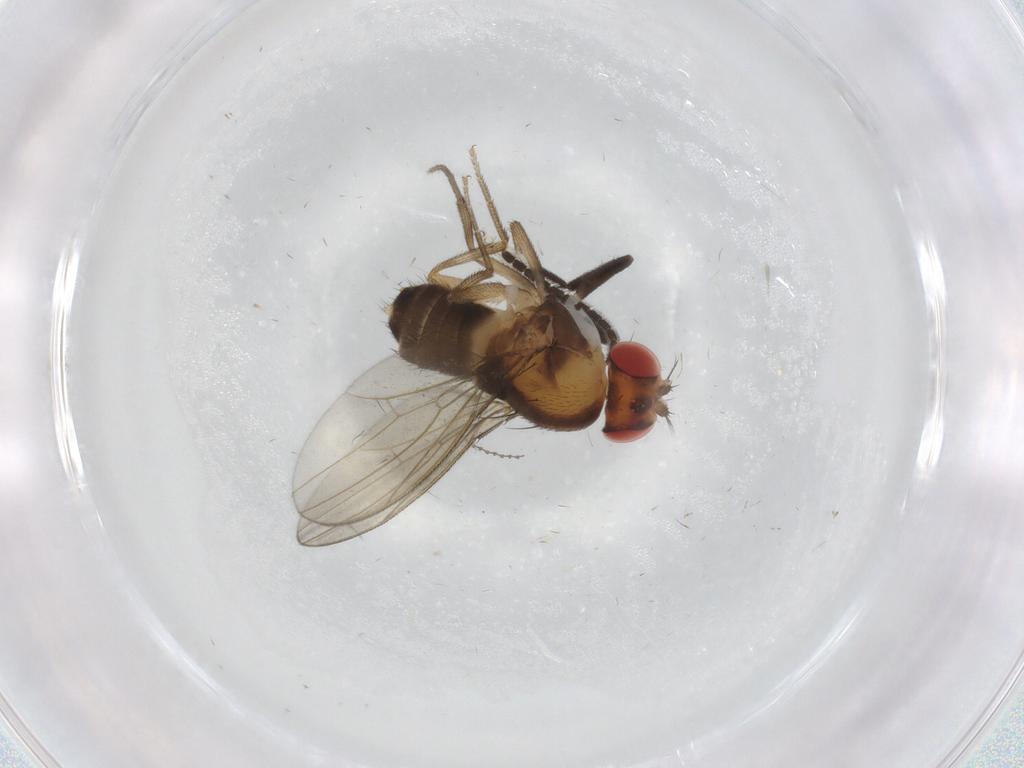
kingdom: Animalia
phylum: Arthropoda
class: Insecta
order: Diptera
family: Drosophilidae
